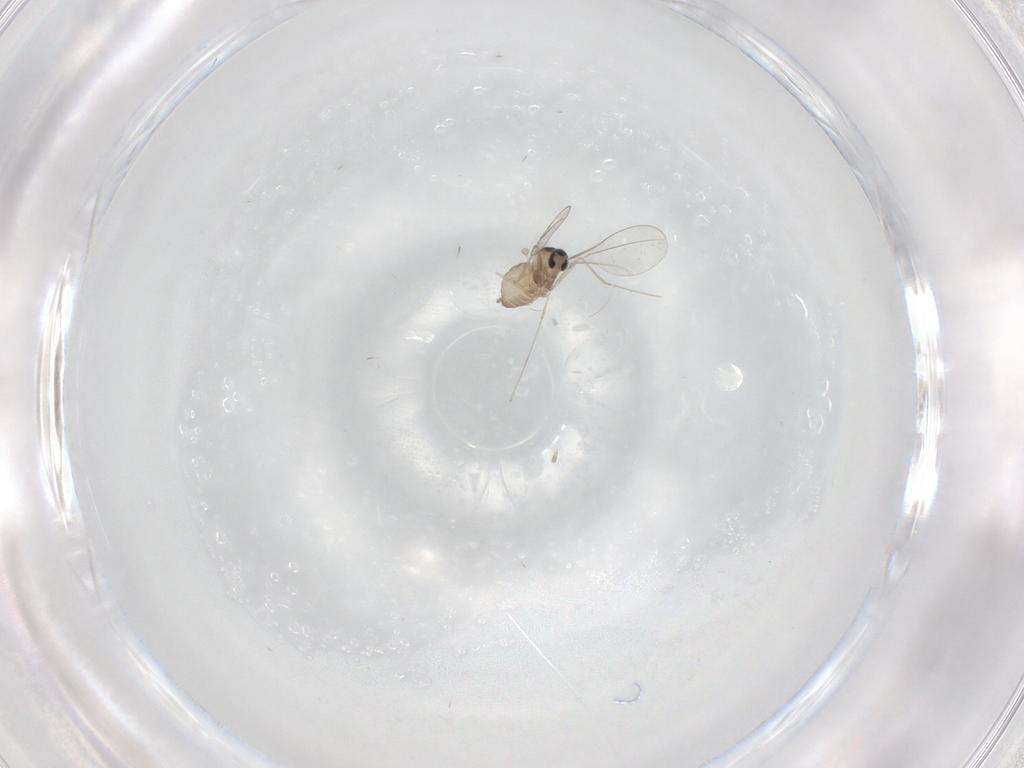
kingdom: Animalia
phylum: Arthropoda
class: Insecta
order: Diptera
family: Cecidomyiidae
